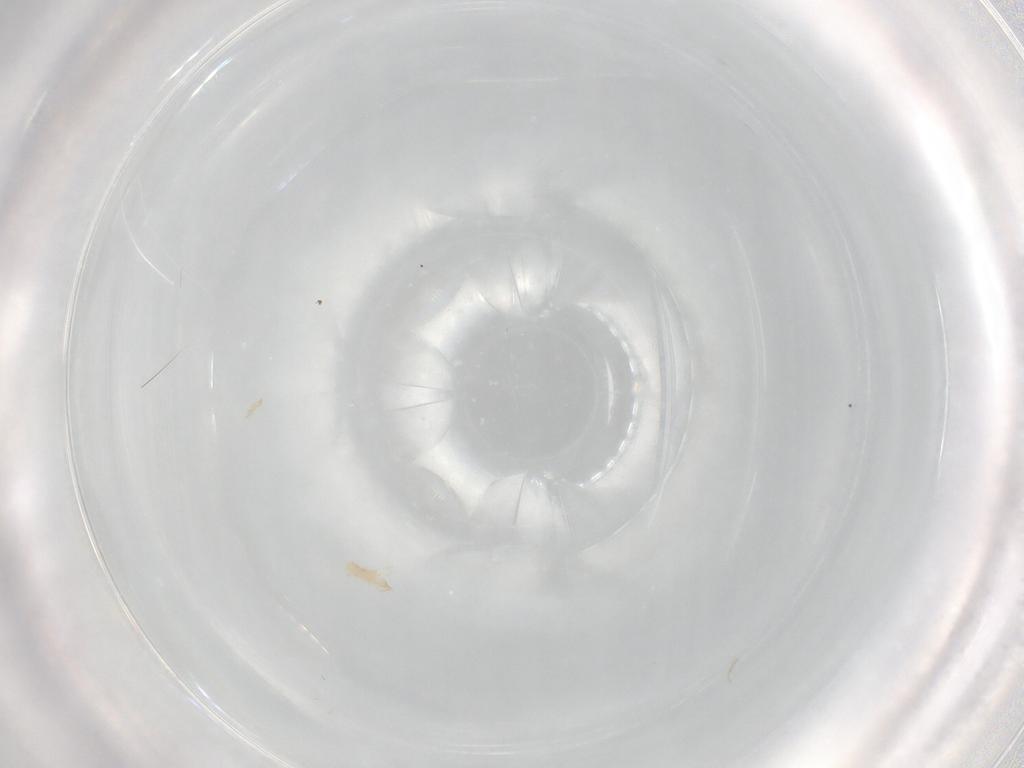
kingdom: Animalia
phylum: Arthropoda
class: Arachnida
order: Trombidiformes
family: Cunaxidae
